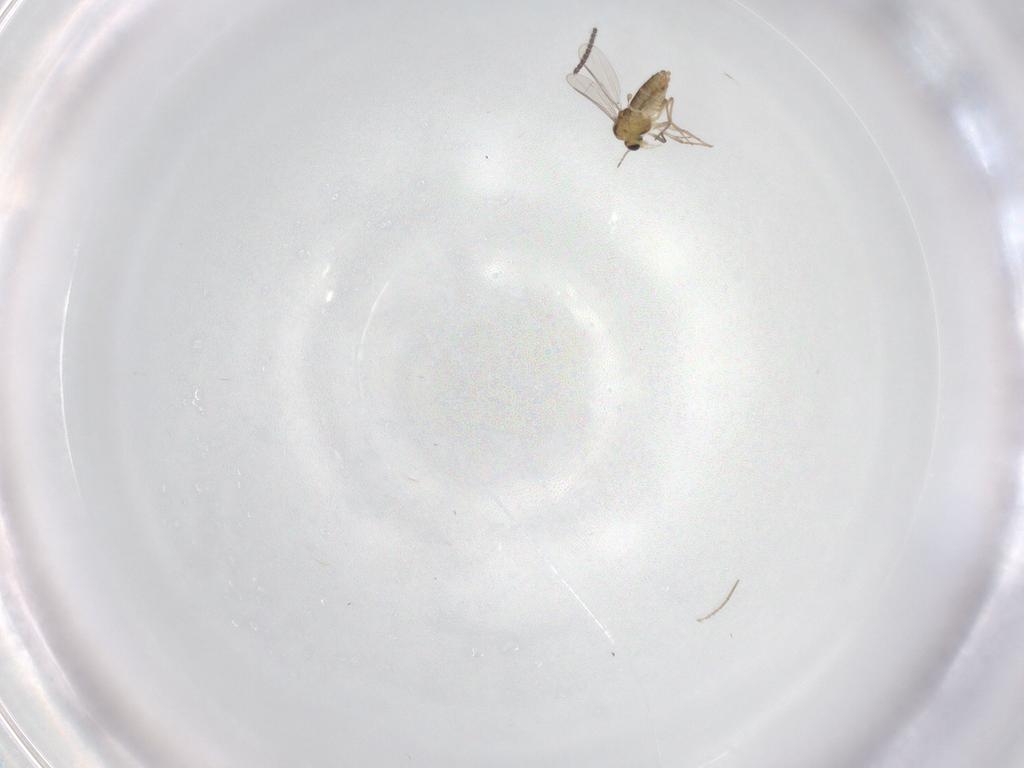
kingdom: Animalia
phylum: Arthropoda
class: Insecta
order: Diptera
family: Chironomidae
